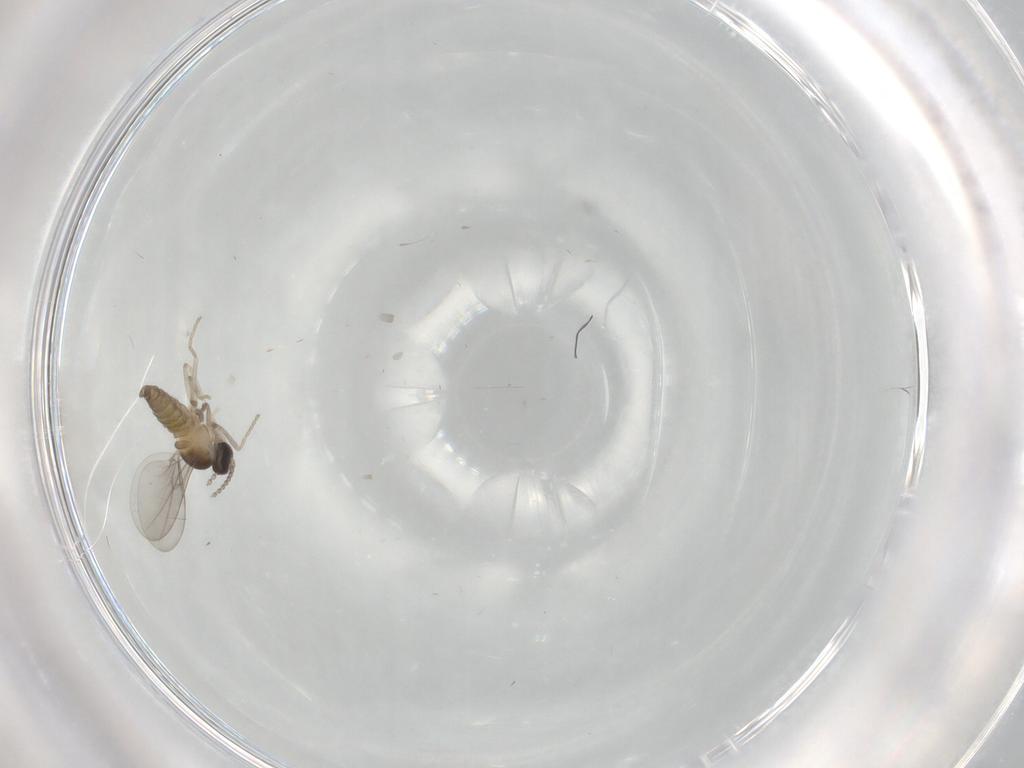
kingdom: Animalia
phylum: Arthropoda
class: Insecta
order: Diptera
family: Cecidomyiidae
